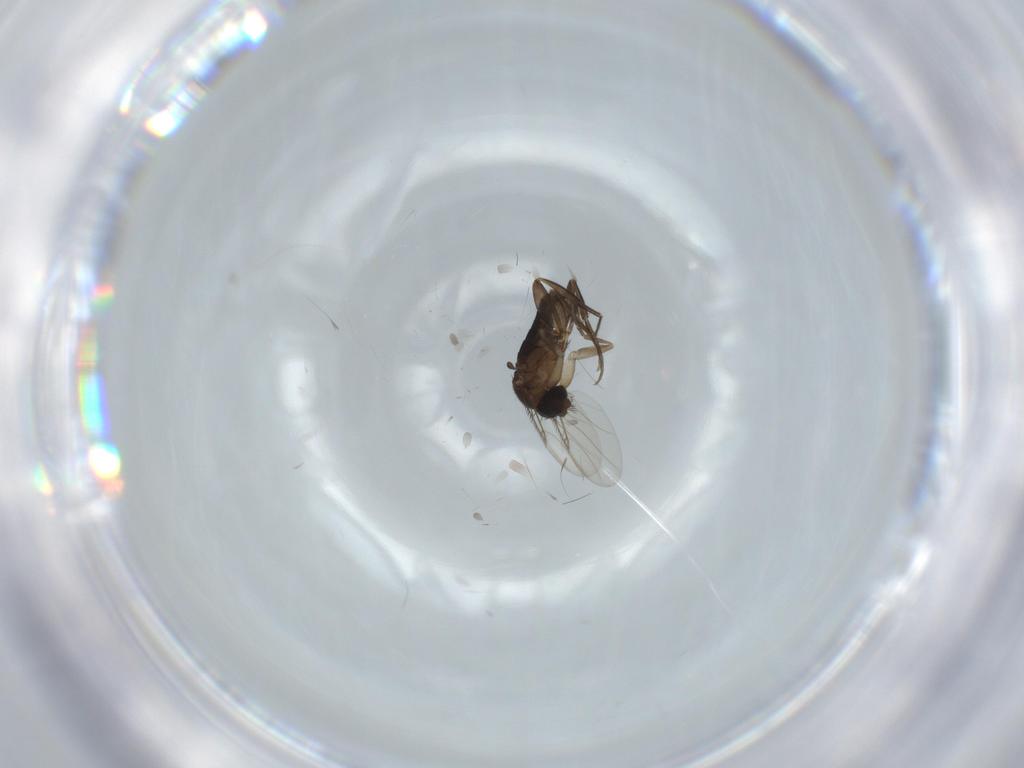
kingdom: Animalia
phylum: Arthropoda
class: Insecta
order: Diptera
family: Phoridae
